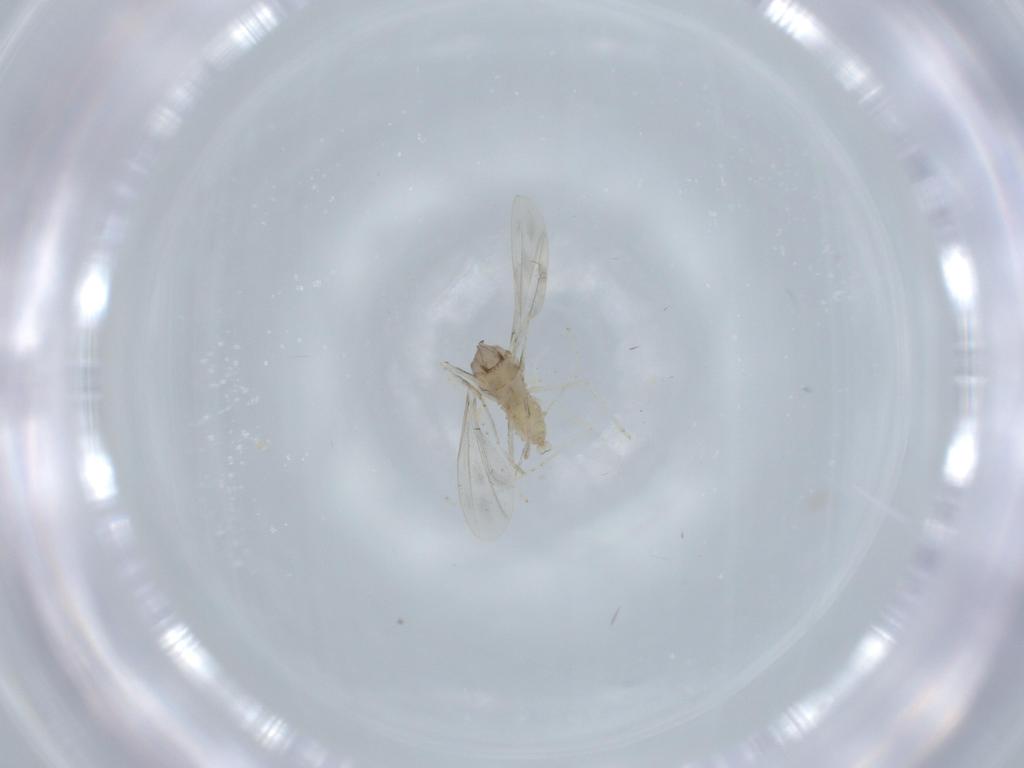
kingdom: Animalia
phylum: Arthropoda
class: Insecta
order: Diptera
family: Cecidomyiidae
